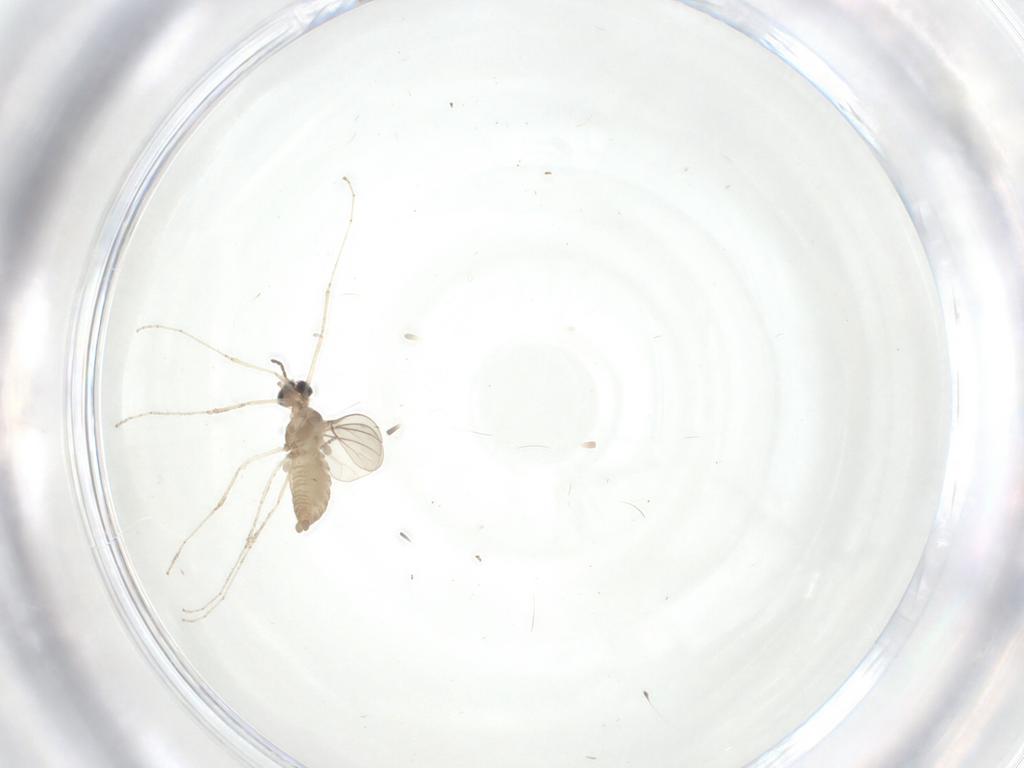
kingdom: Animalia
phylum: Arthropoda
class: Insecta
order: Diptera
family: Cecidomyiidae
